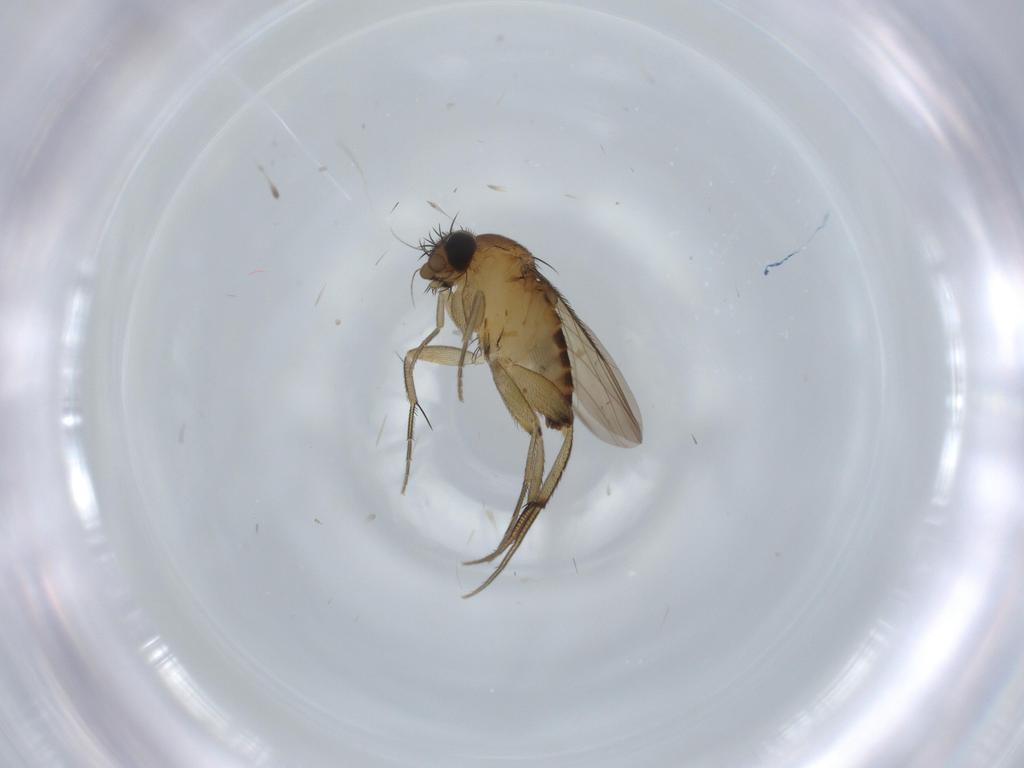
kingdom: Animalia
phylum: Arthropoda
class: Insecta
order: Diptera
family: Phoridae
